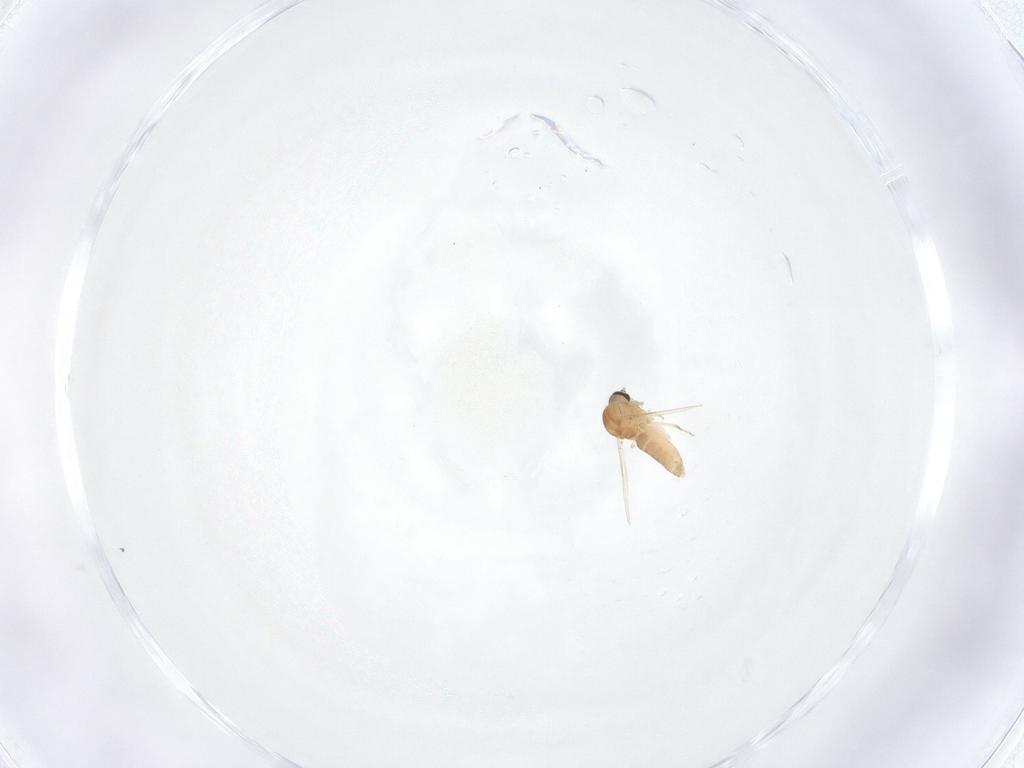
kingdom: Animalia
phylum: Arthropoda
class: Insecta
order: Diptera
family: Ceratopogonidae
